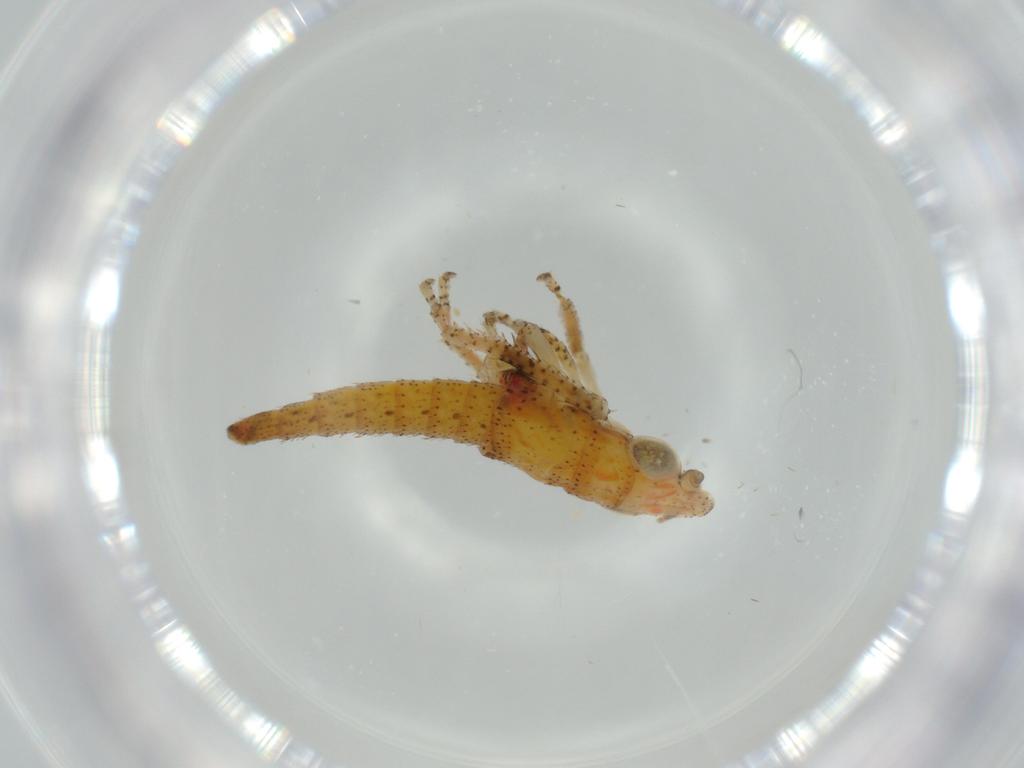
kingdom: Animalia
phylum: Arthropoda
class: Insecta
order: Hemiptera
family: Cicadellidae
